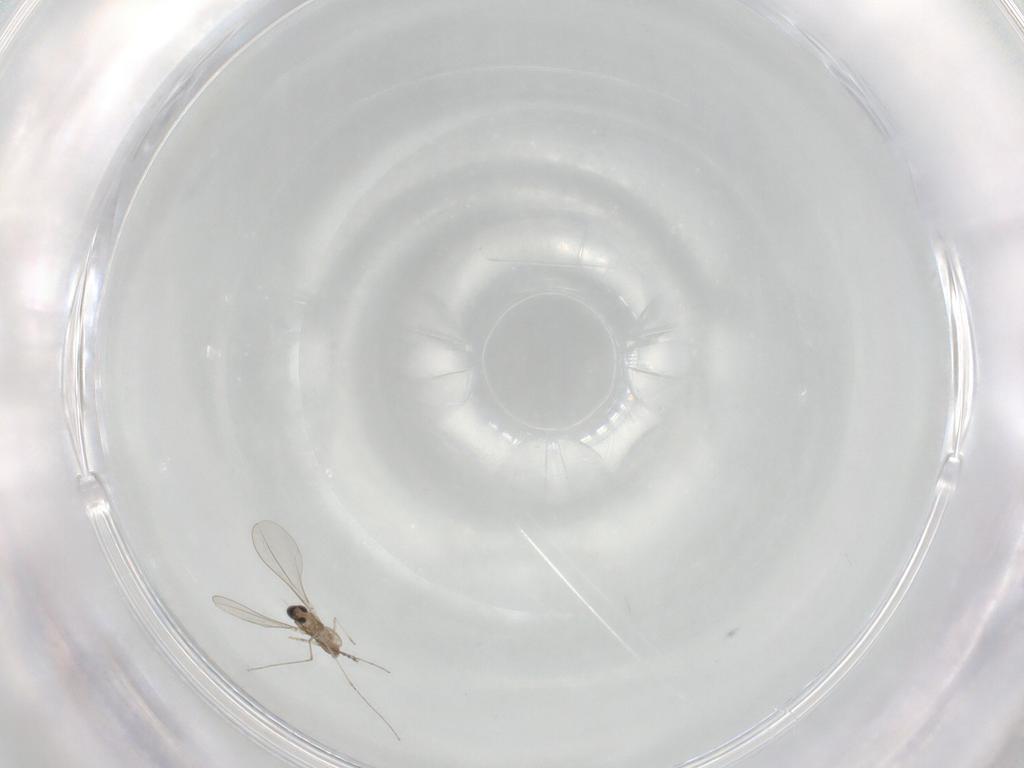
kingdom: Animalia
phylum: Arthropoda
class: Insecta
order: Diptera
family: Cecidomyiidae
